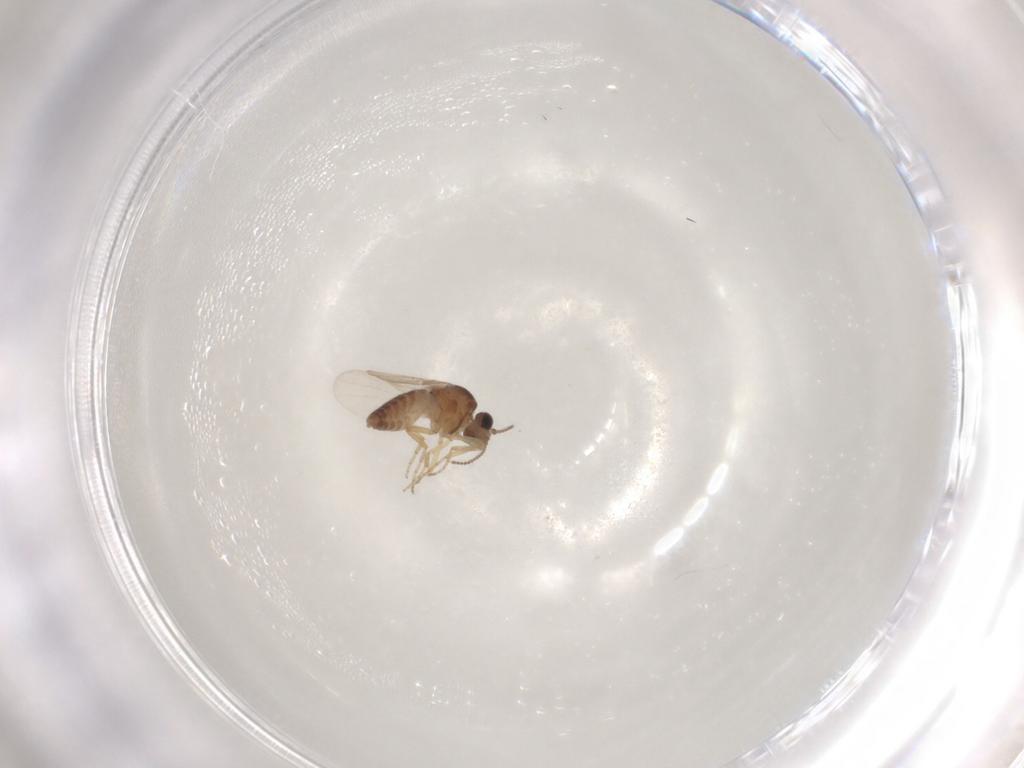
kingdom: Animalia
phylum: Arthropoda
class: Insecta
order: Diptera
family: Ceratopogonidae
